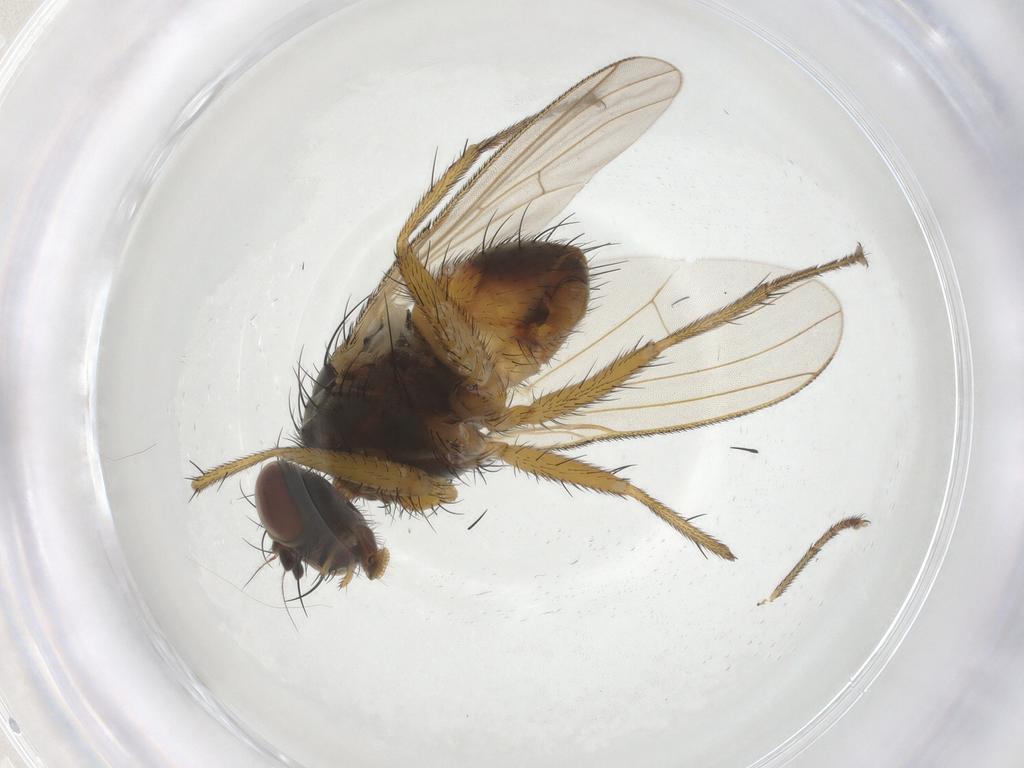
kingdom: Animalia
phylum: Arthropoda
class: Insecta
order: Diptera
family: Muscidae
